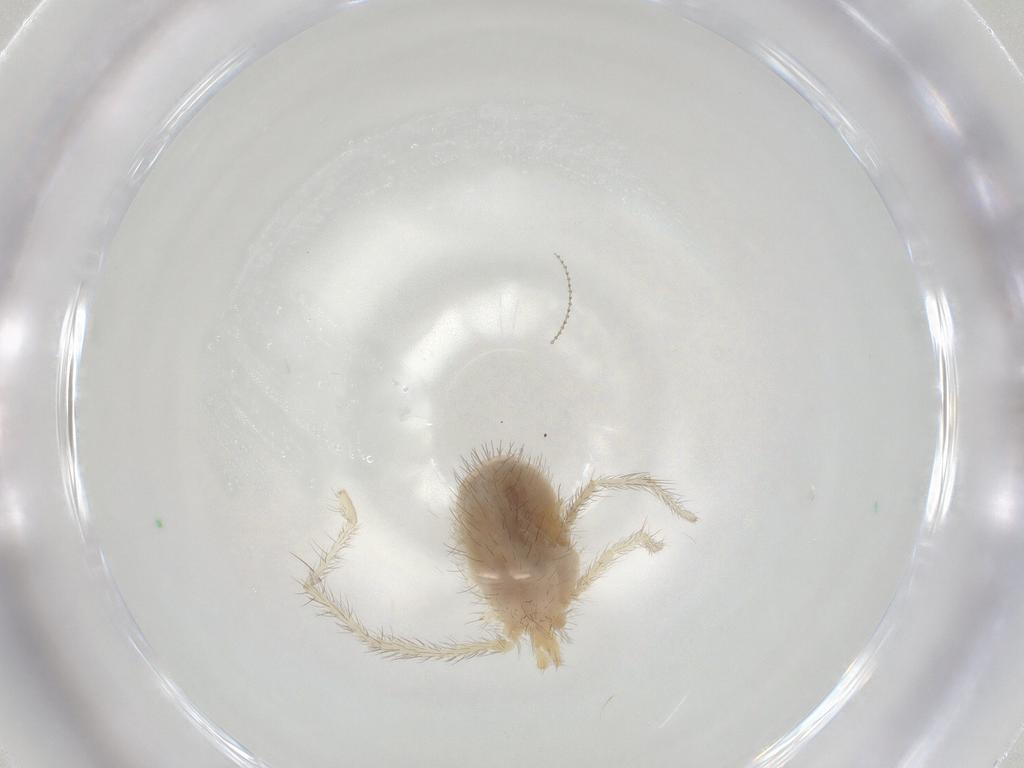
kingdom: Animalia
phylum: Arthropoda
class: Arachnida
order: Trombidiformes
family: Erythraeidae
